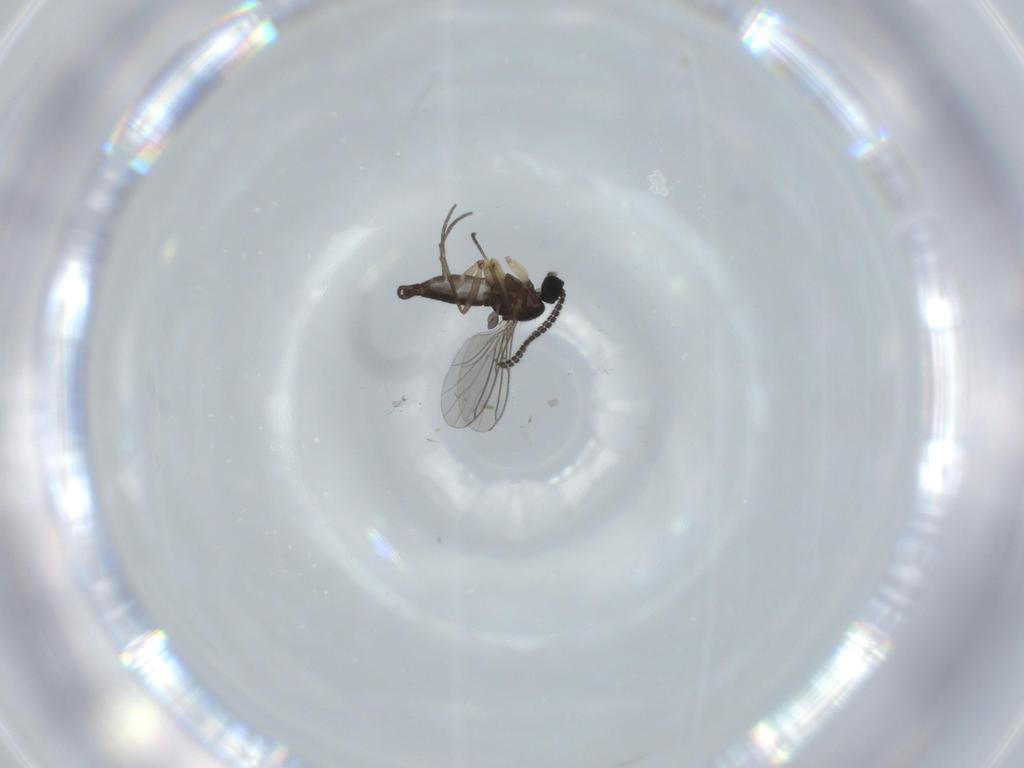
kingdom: Animalia
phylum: Arthropoda
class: Insecta
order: Diptera
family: Sciaridae
